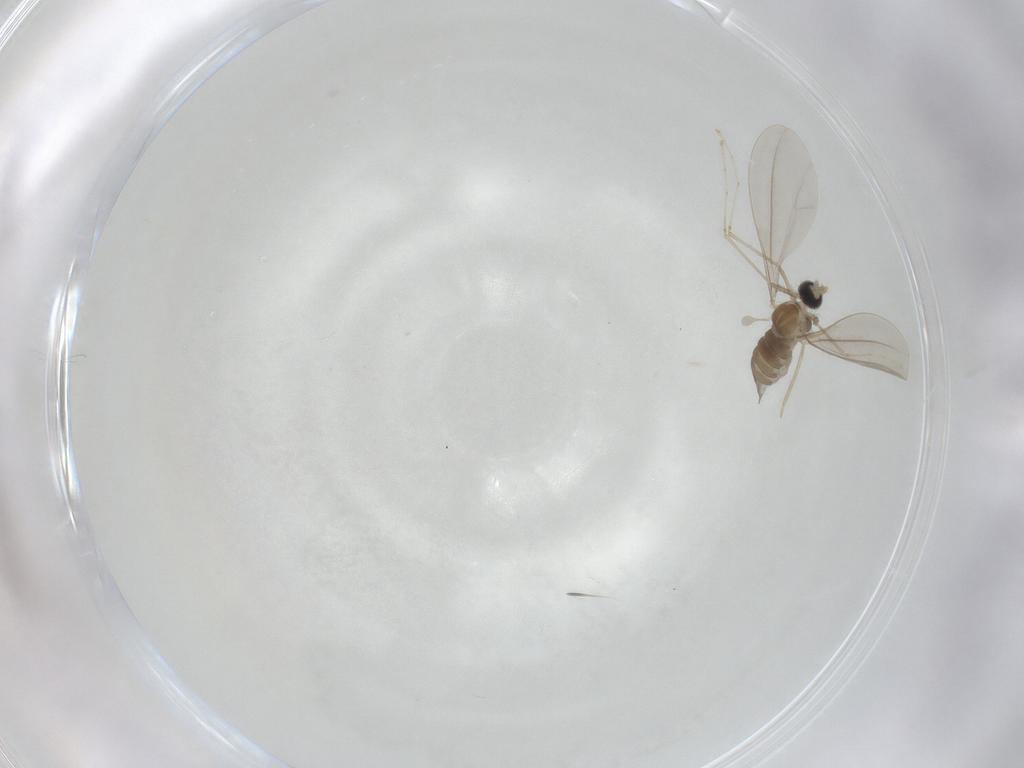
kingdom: Animalia
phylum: Arthropoda
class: Insecta
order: Diptera
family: Cecidomyiidae
